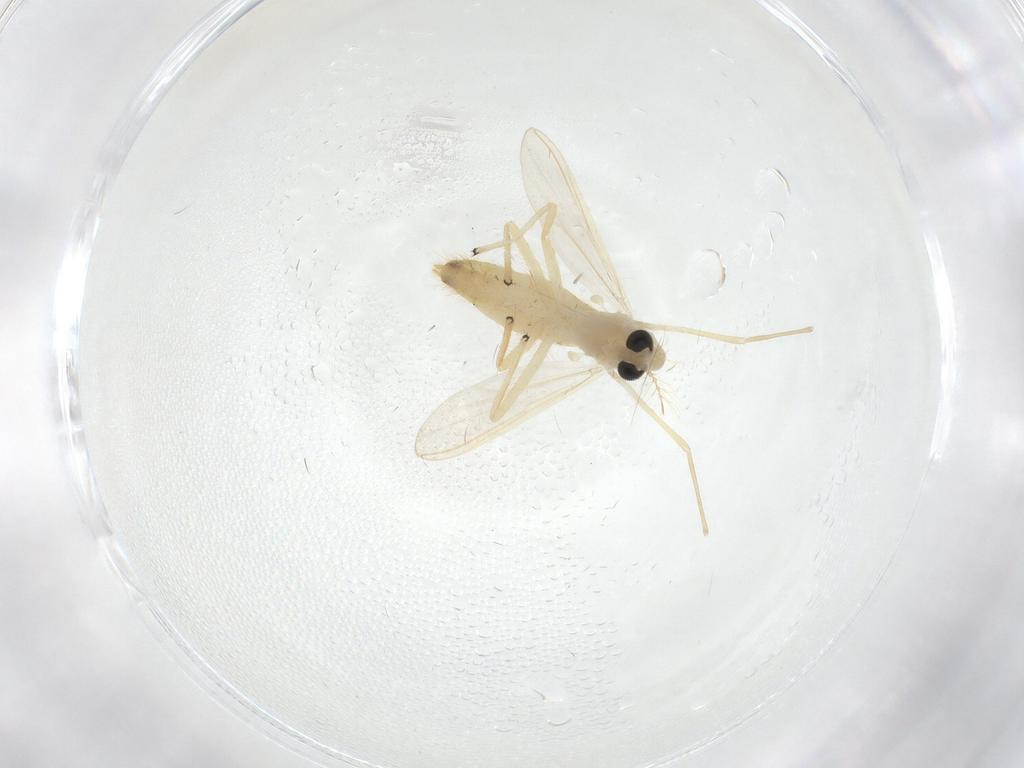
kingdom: Animalia
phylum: Arthropoda
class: Insecta
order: Diptera
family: Chironomidae
